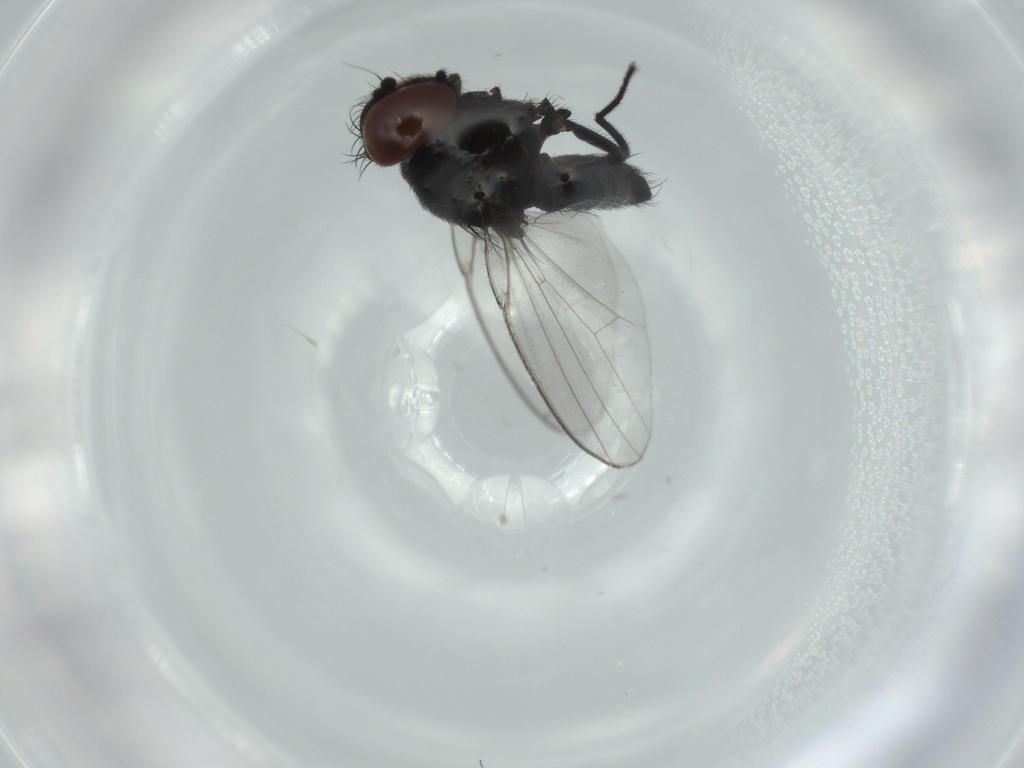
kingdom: Animalia
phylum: Arthropoda
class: Insecta
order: Diptera
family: Milichiidae
